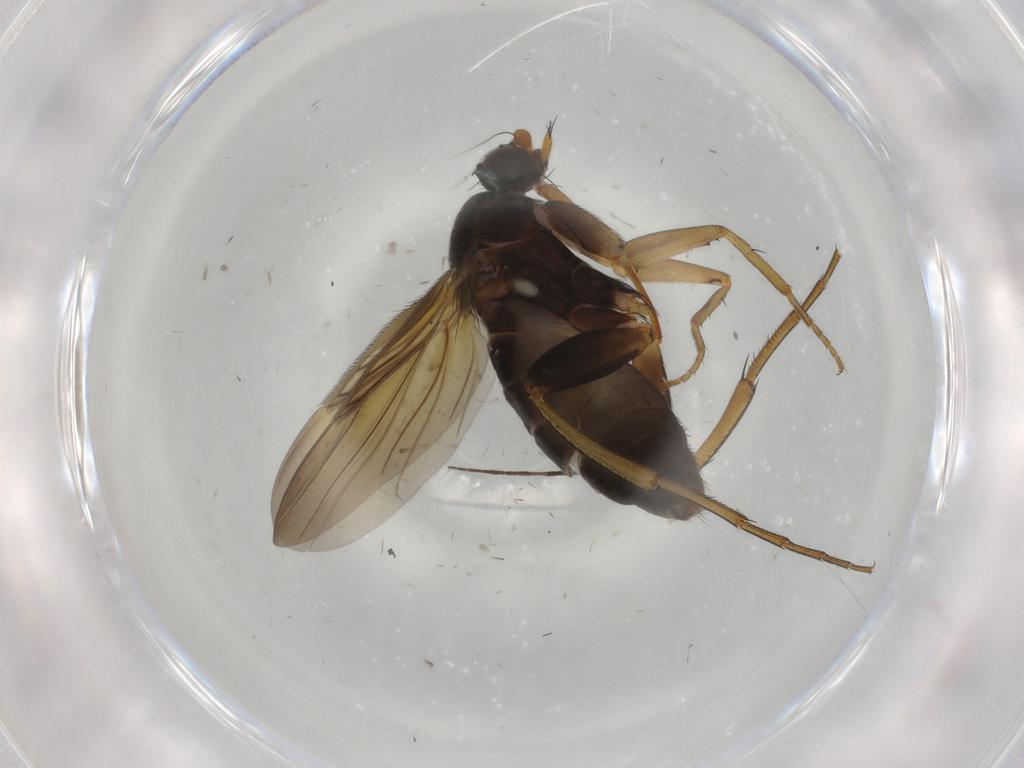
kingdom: Animalia
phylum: Arthropoda
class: Insecta
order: Diptera
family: Phoridae
